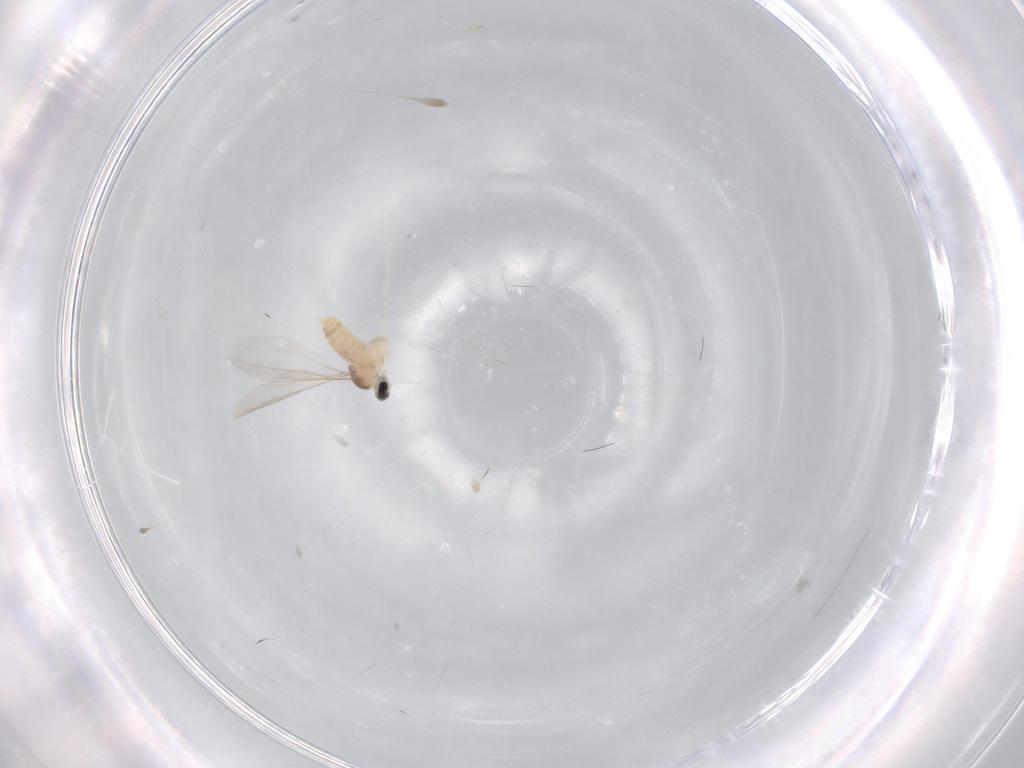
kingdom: Animalia
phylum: Arthropoda
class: Insecta
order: Diptera
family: Cecidomyiidae
